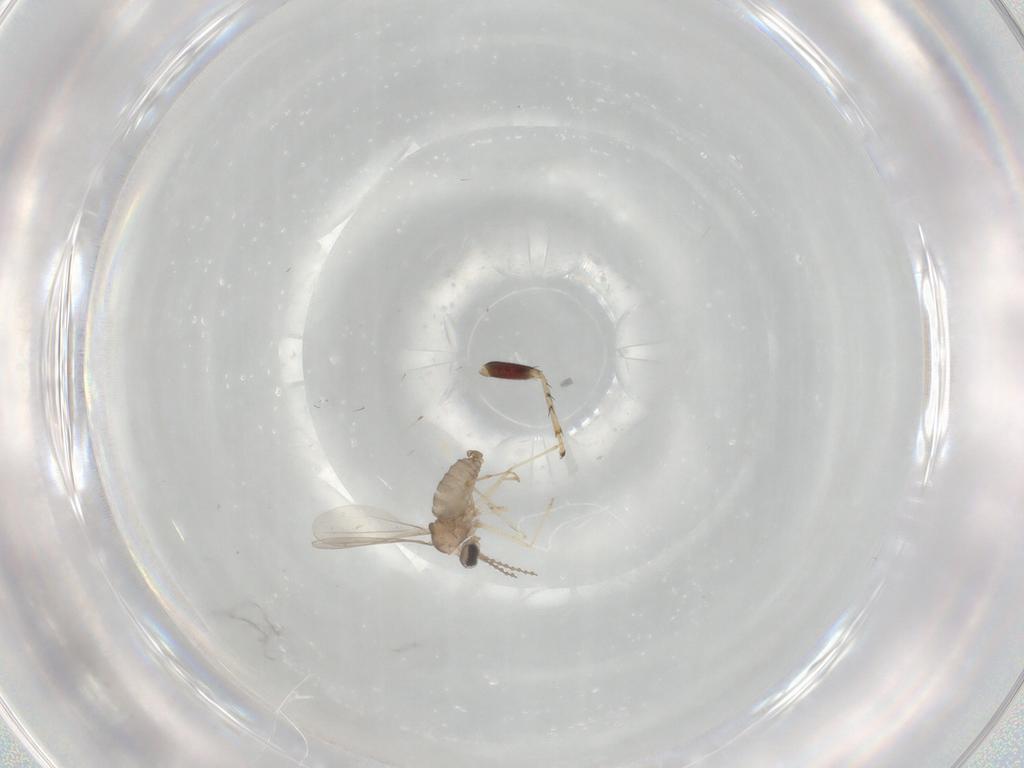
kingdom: Animalia
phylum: Arthropoda
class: Insecta
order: Diptera
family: Cecidomyiidae
